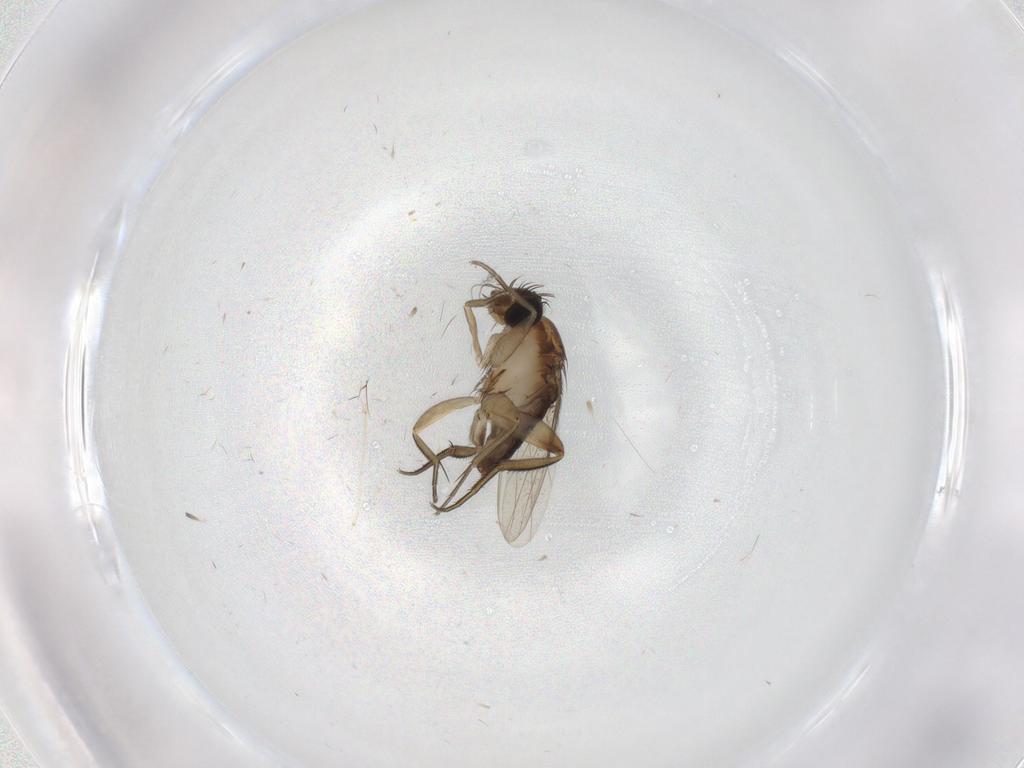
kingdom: Animalia
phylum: Arthropoda
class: Insecta
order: Diptera
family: Phoridae
